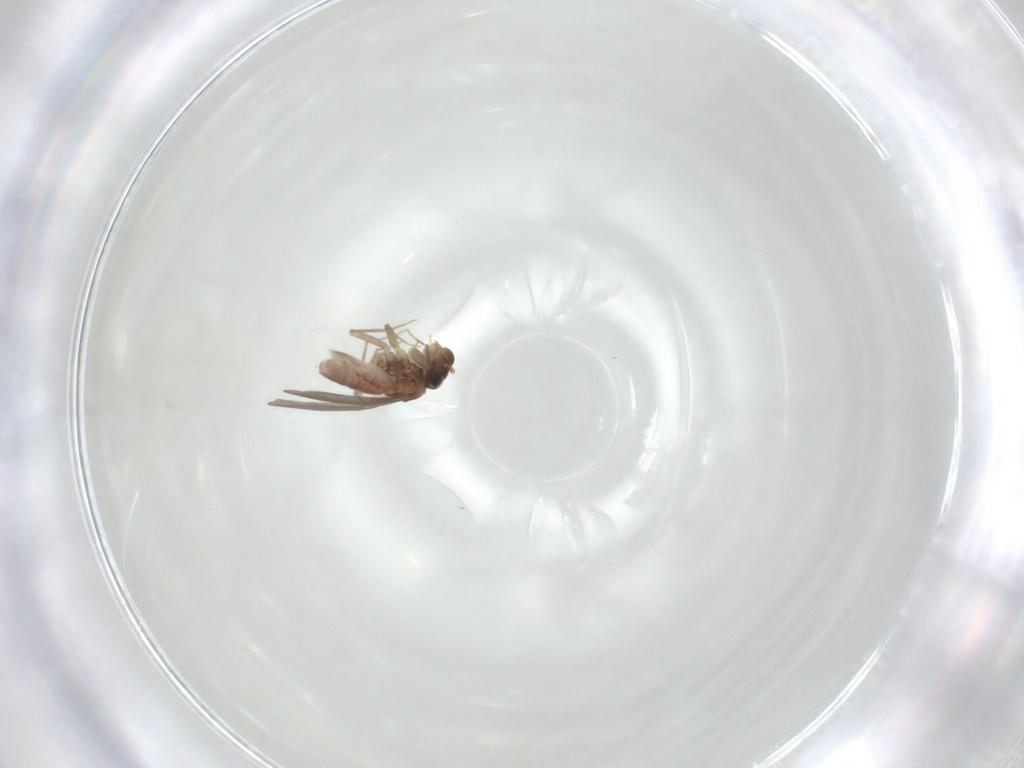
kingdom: Animalia
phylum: Arthropoda
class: Insecta
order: Psocodea
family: Lepidopsocidae
